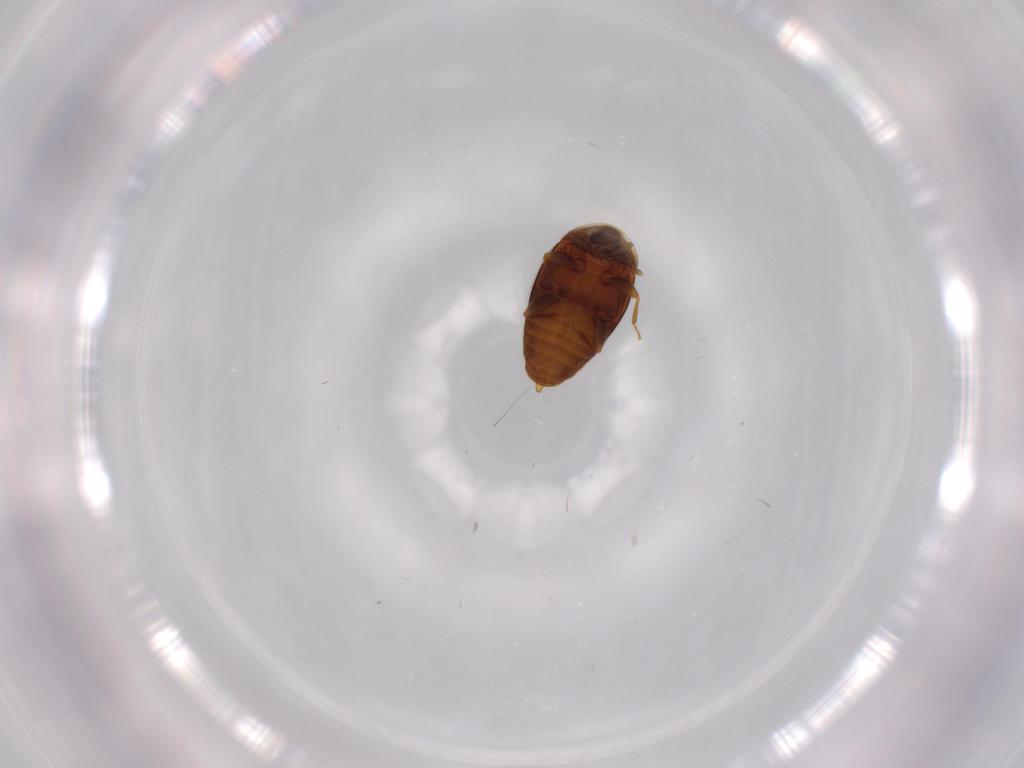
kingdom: Animalia
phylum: Arthropoda
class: Insecta
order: Coleoptera
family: Corylophidae
